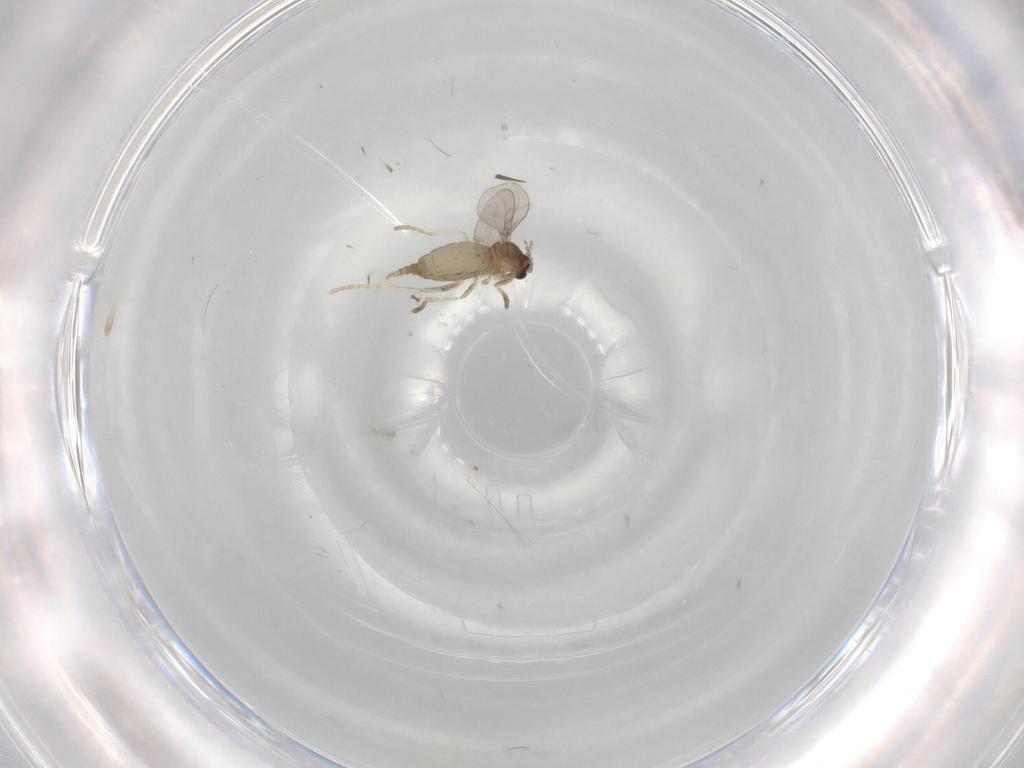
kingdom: Animalia
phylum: Arthropoda
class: Insecta
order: Diptera
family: Cecidomyiidae
